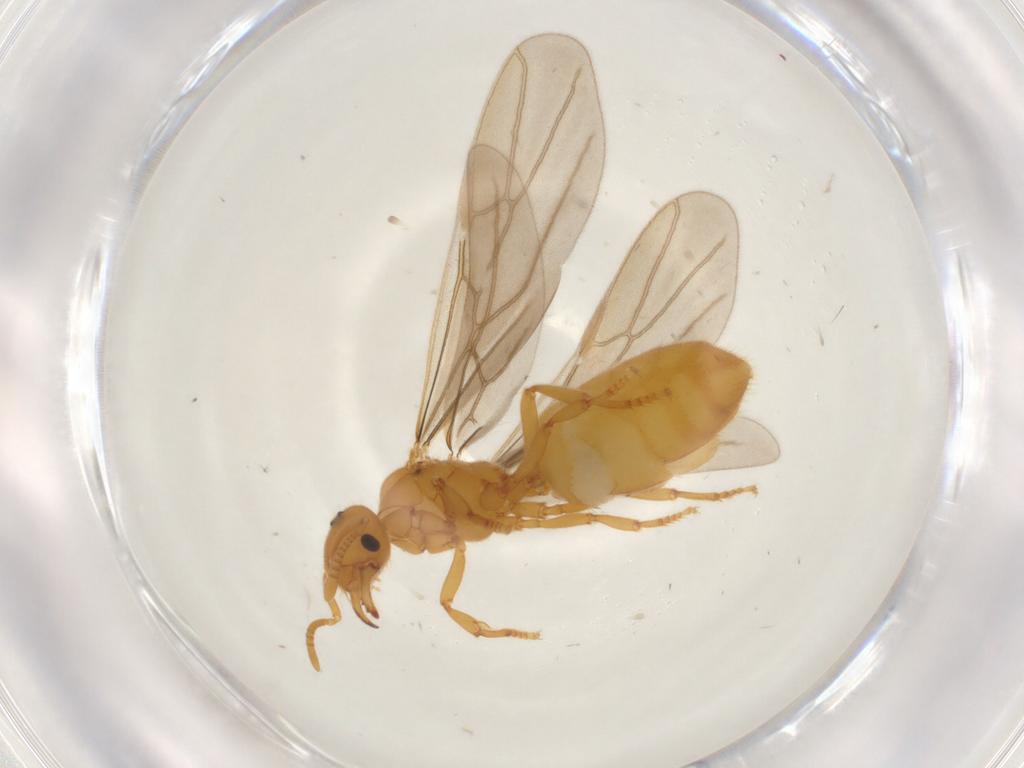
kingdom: Animalia
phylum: Arthropoda
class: Insecta
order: Hymenoptera
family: Formicidae
